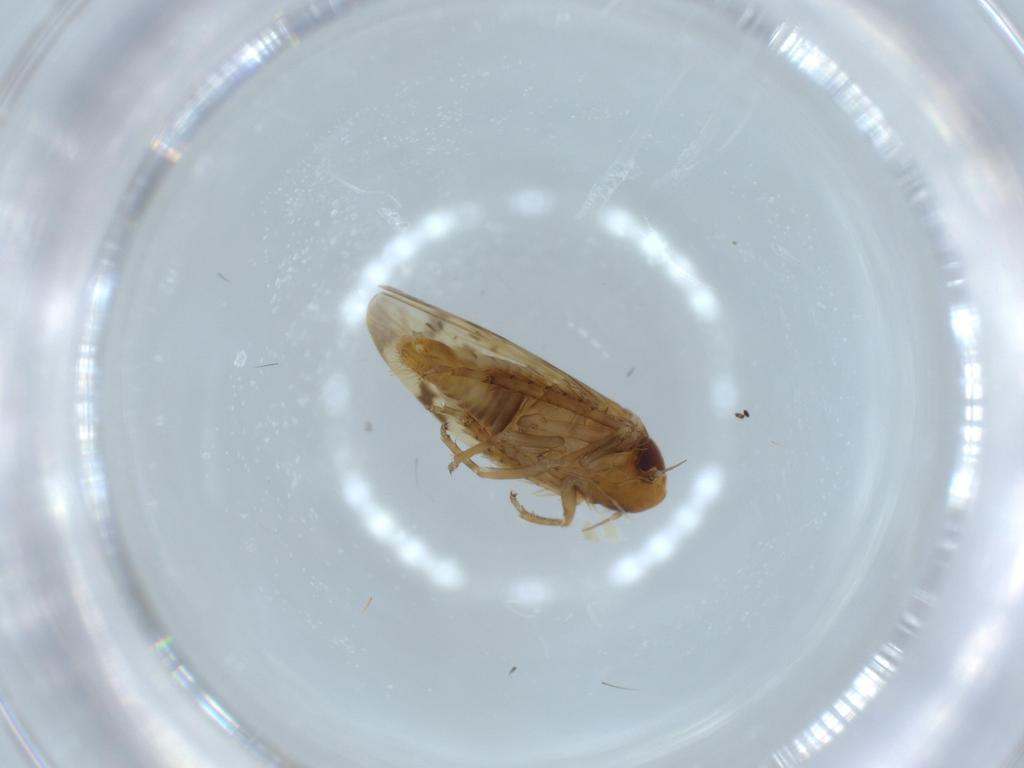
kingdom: Animalia
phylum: Arthropoda
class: Insecta
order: Hemiptera
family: Cicadellidae
